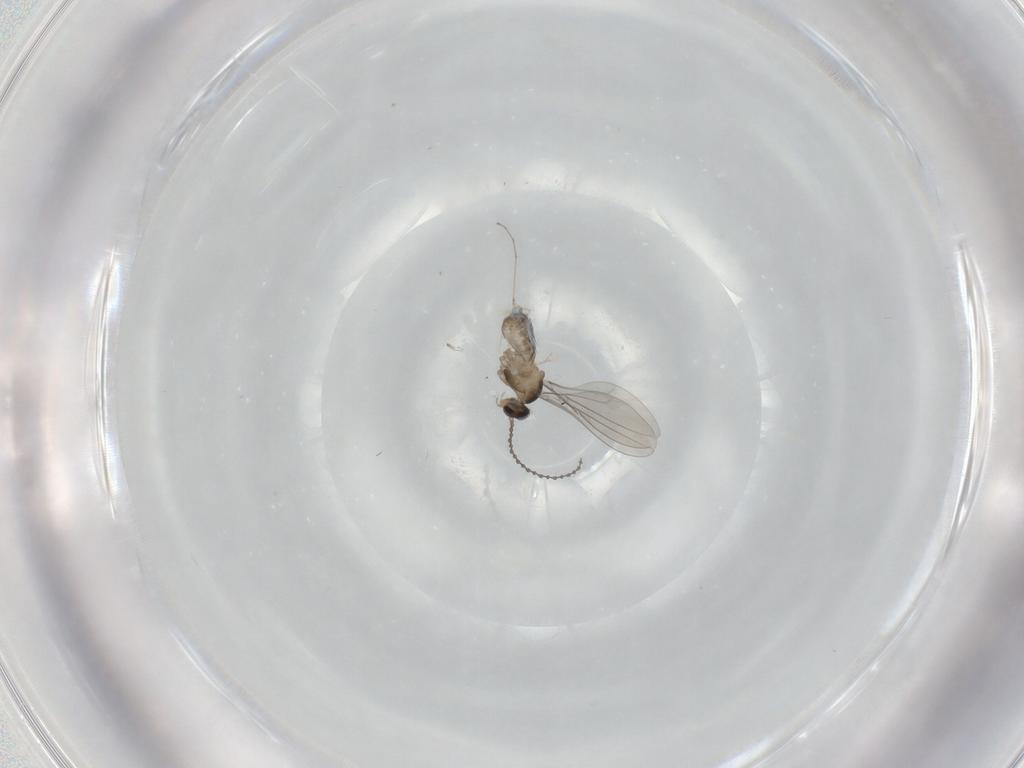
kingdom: Animalia
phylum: Arthropoda
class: Insecta
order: Diptera
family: Cecidomyiidae
